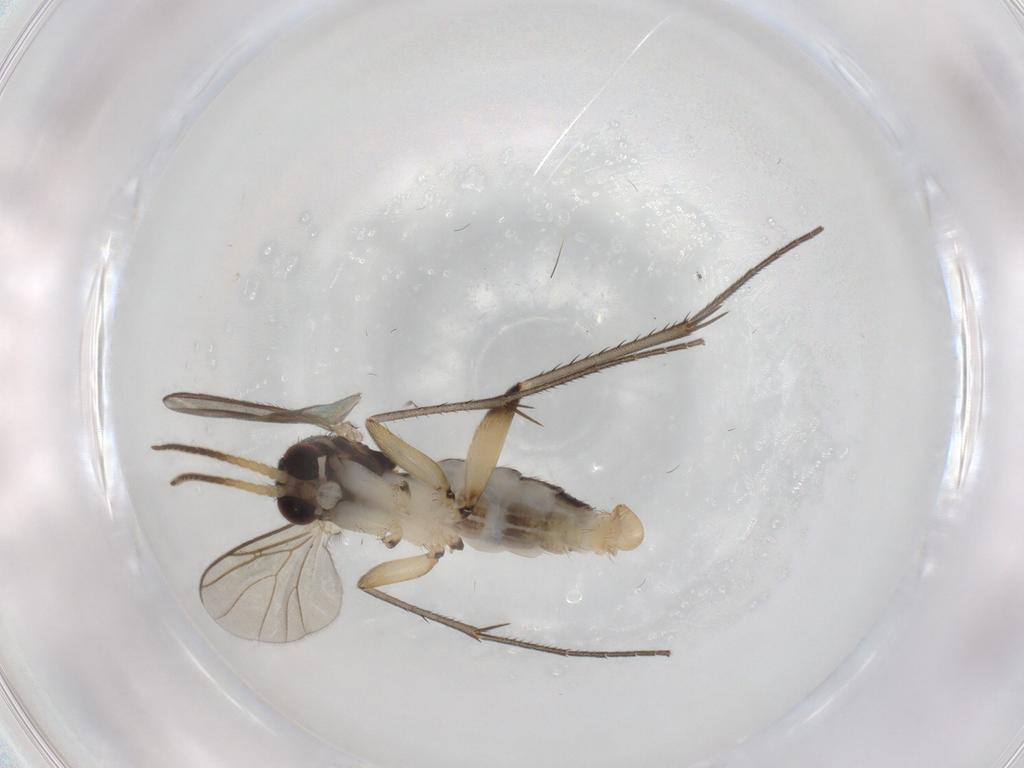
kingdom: Animalia
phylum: Arthropoda
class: Insecta
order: Diptera
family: Mycetophilidae
